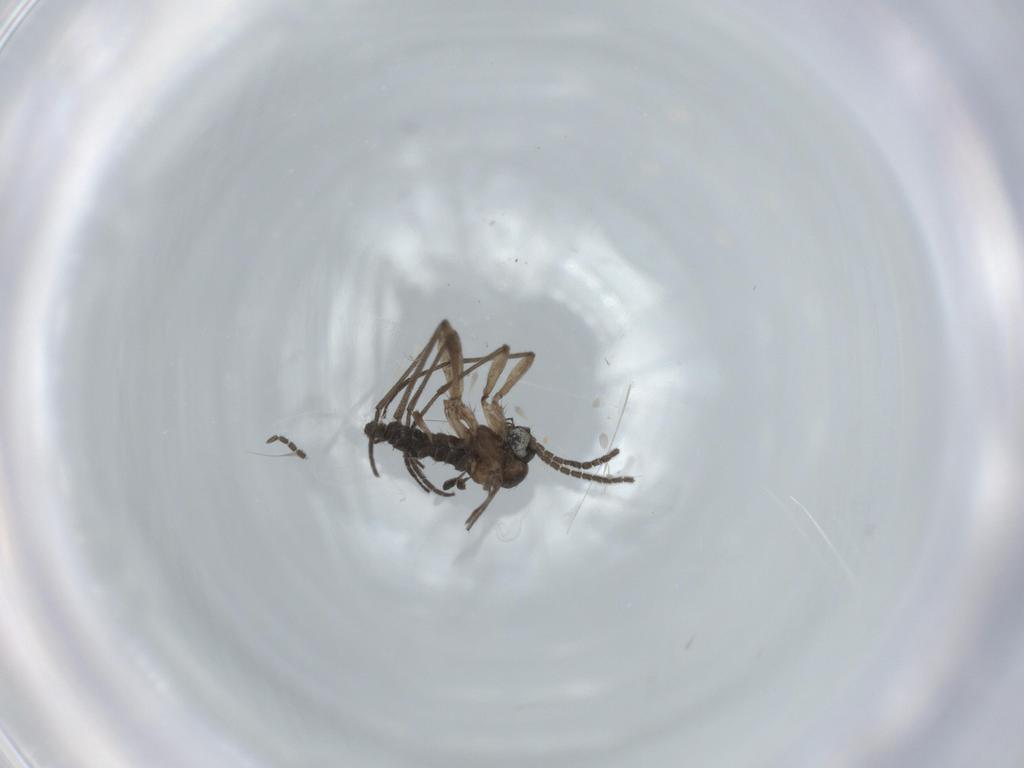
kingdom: Animalia
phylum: Arthropoda
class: Insecta
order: Diptera
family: Sciaridae
